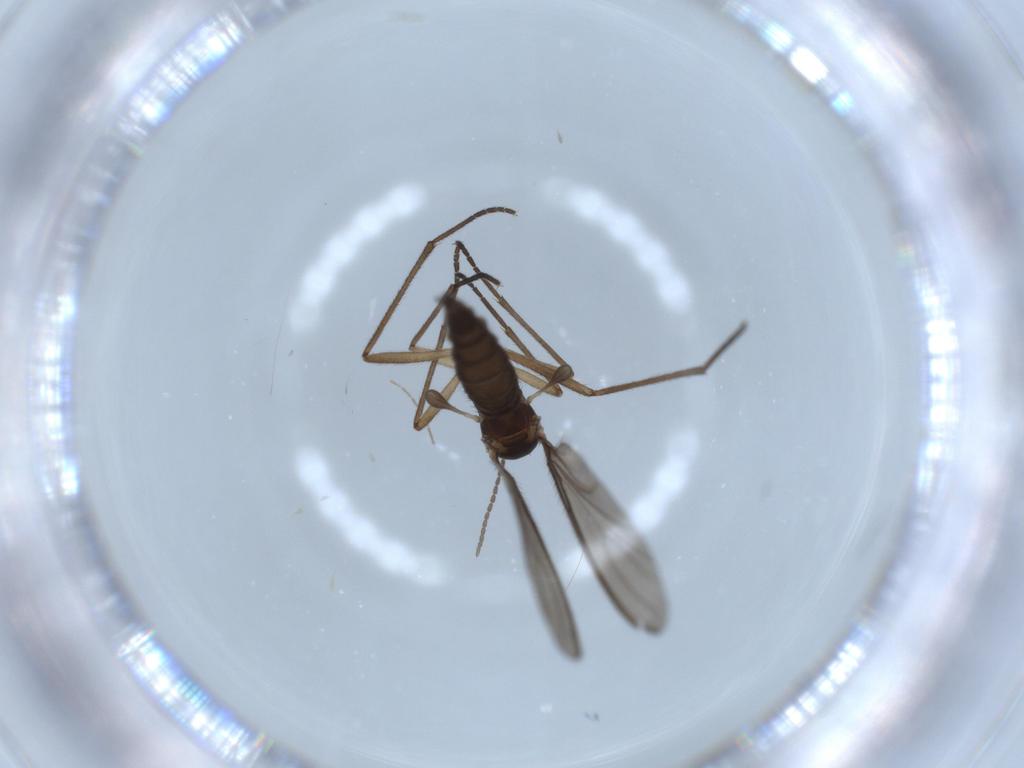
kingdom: Animalia
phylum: Arthropoda
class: Insecta
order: Diptera
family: Sciaridae
